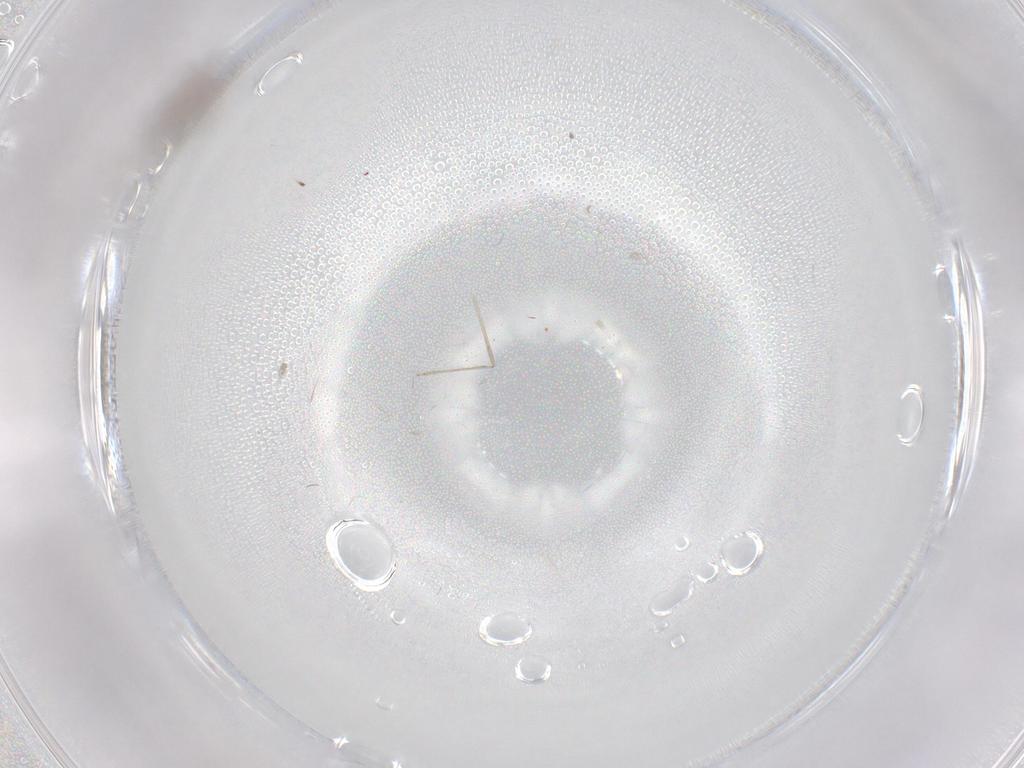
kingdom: Animalia
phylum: Arthropoda
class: Insecta
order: Diptera
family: Cecidomyiidae
